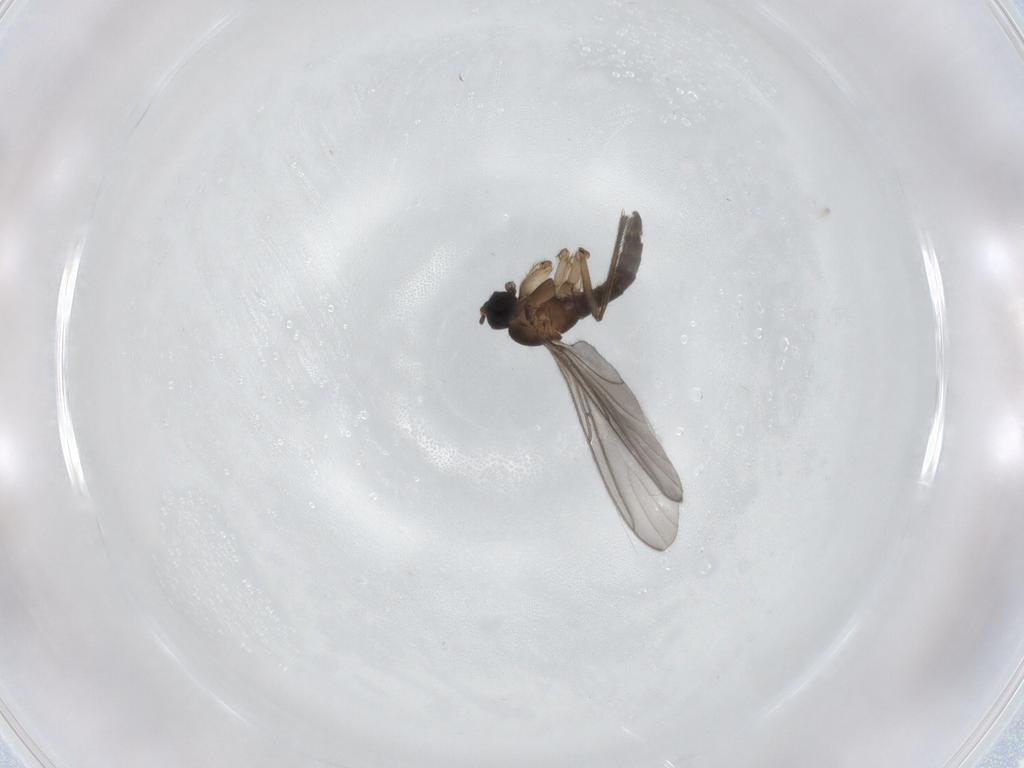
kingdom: Animalia
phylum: Arthropoda
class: Insecta
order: Diptera
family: Sciaridae
